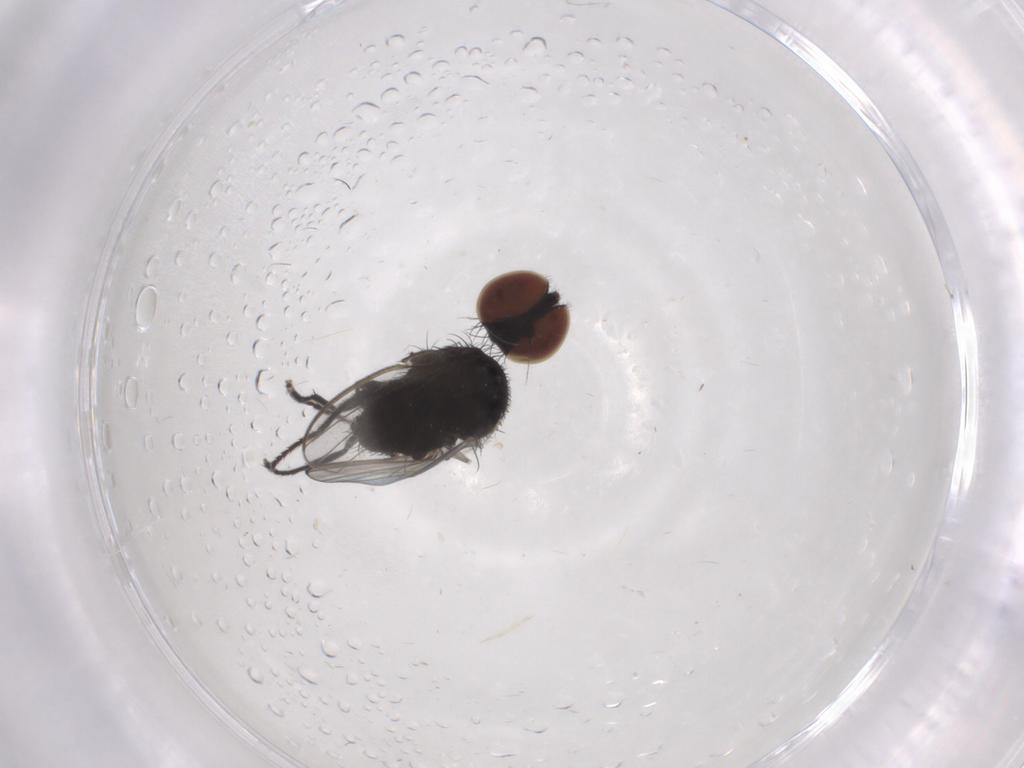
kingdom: Animalia
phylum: Arthropoda
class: Insecta
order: Diptera
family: Milichiidae
